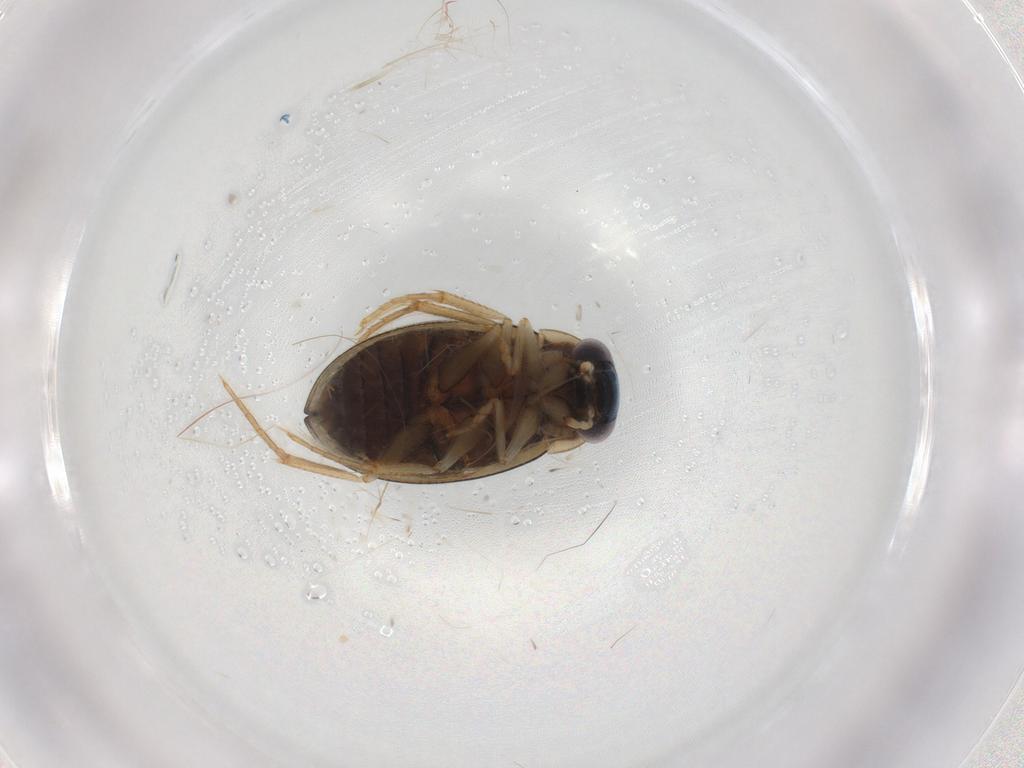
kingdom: Animalia
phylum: Arthropoda
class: Insecta
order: Coleoptera
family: Hydrophilidae
